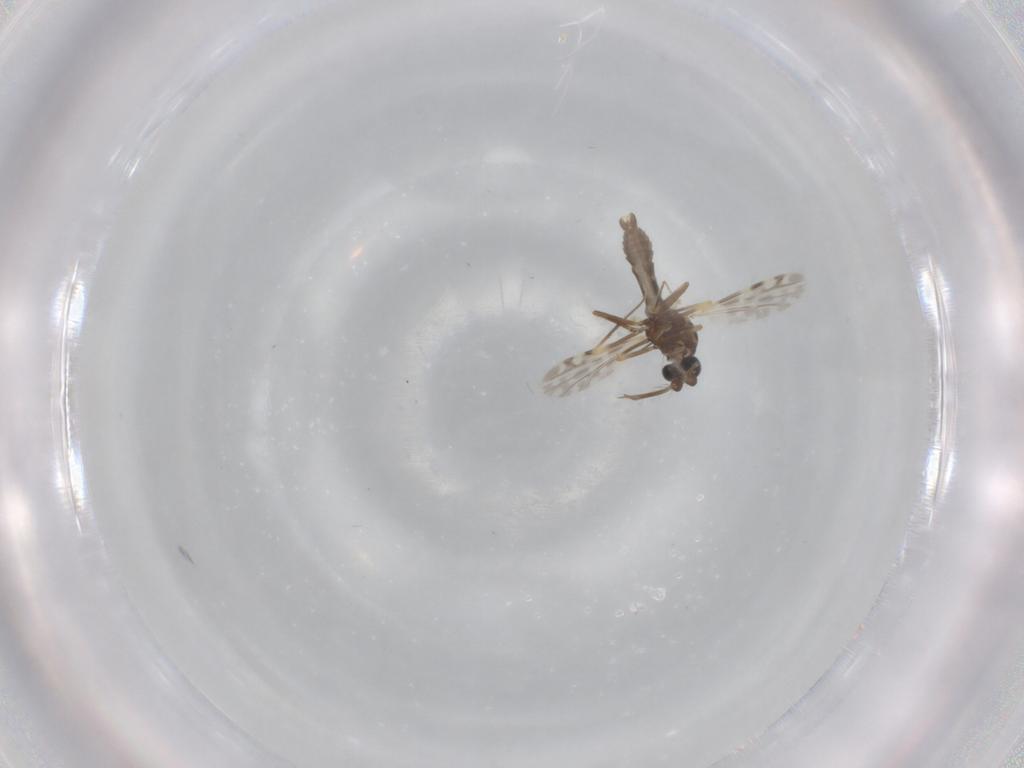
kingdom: Animalia
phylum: Arthropoda
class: Insecta
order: Diptera
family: Ceratopogonidae
